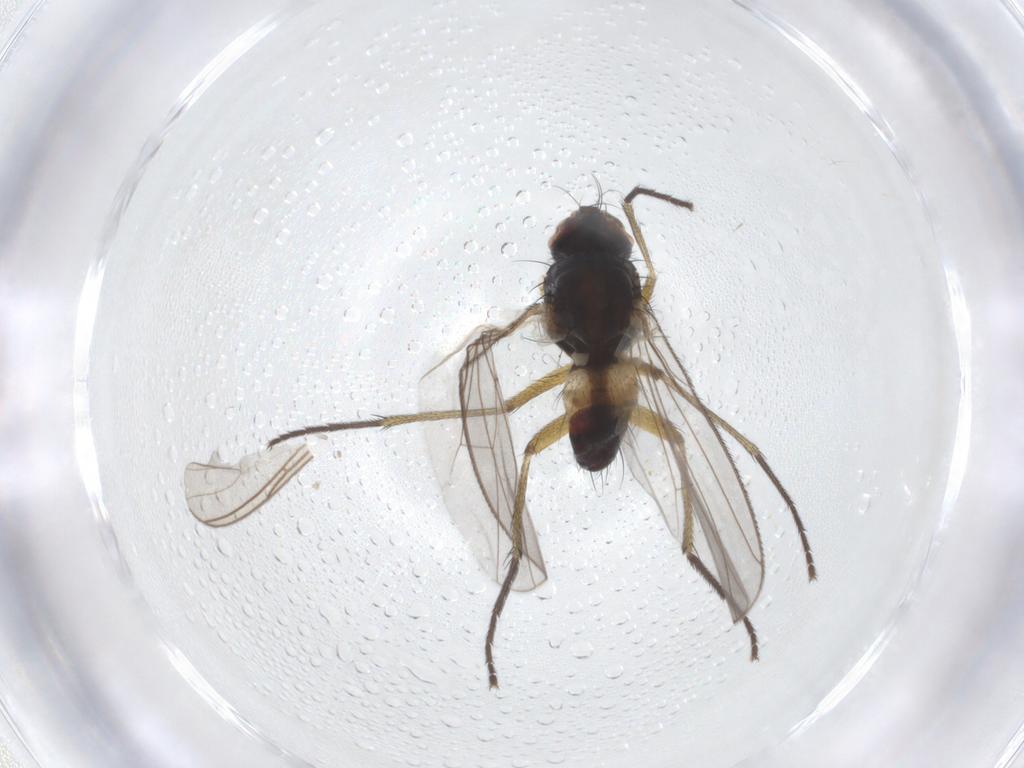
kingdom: Animalia
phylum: Arthropoda
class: Insecta
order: Diptera
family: Muscidae
